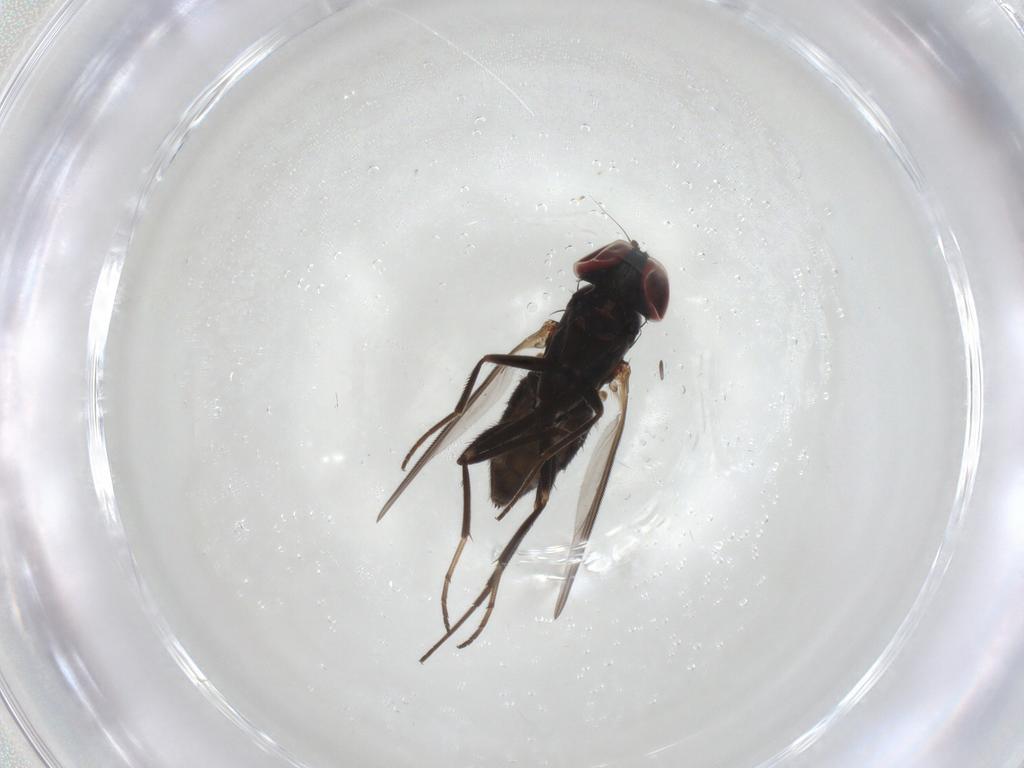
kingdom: Animalia
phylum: Arthropoda
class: Insecta
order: Diptera
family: Dolichopodidae
